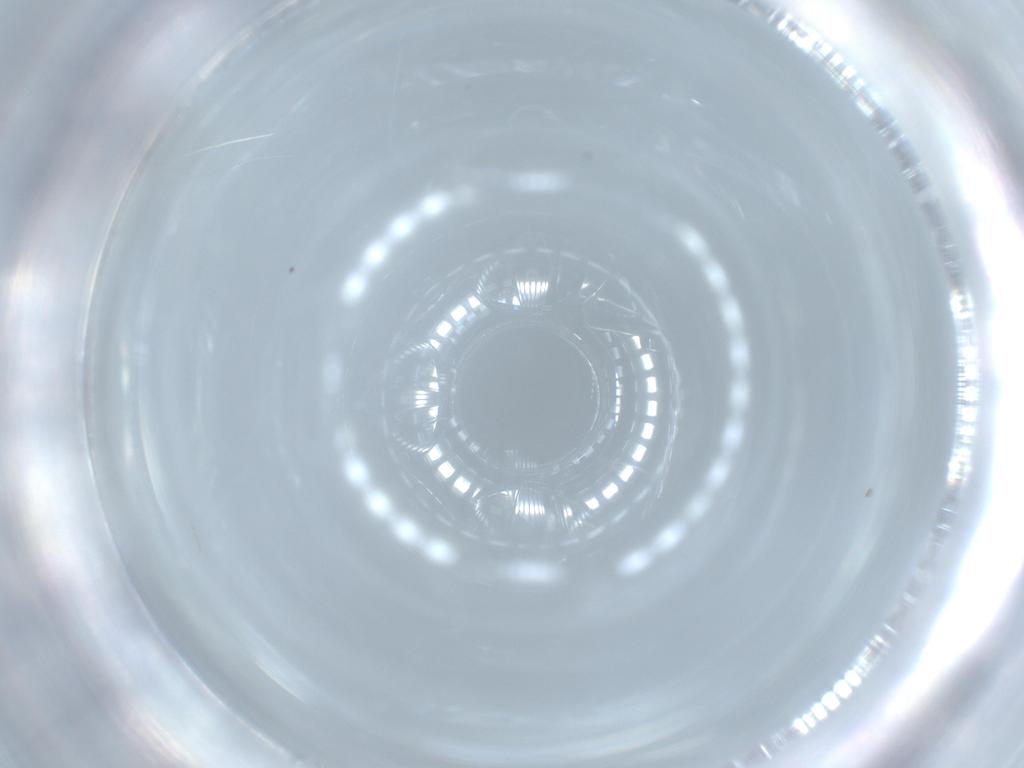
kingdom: Animalia
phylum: Arthropoda
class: Insecta
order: Diptera
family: Cecidomyiidae
